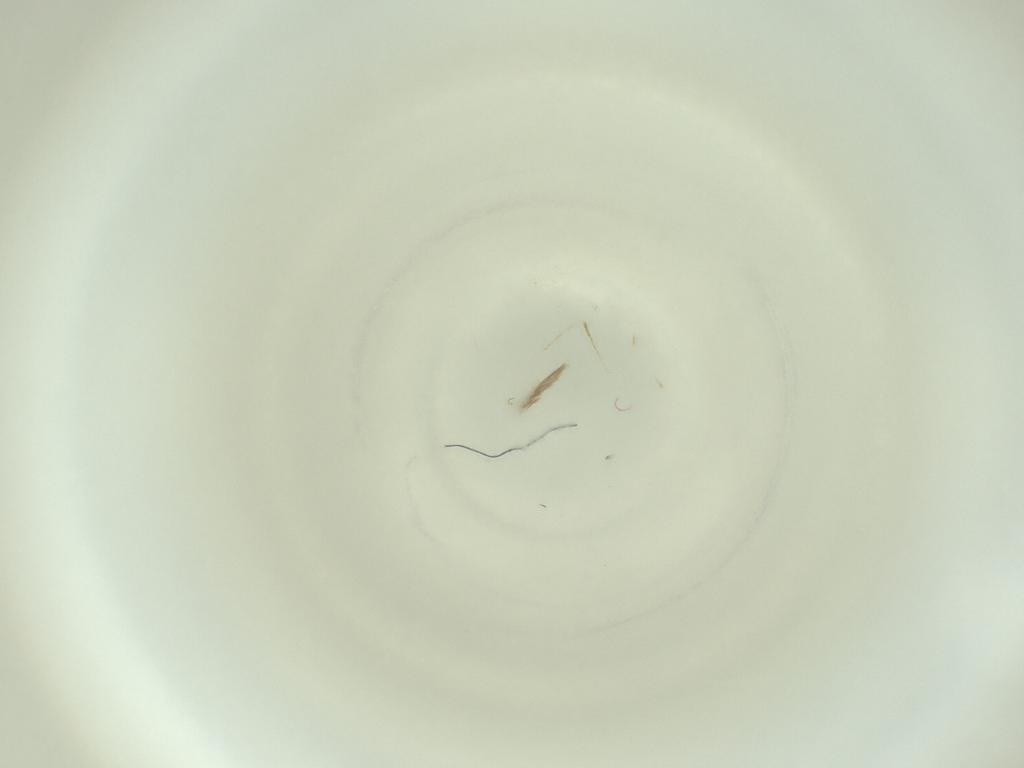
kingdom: Animalia
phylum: Arthropoda
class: Insecta
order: Diptera
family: Cecidomyiidae
